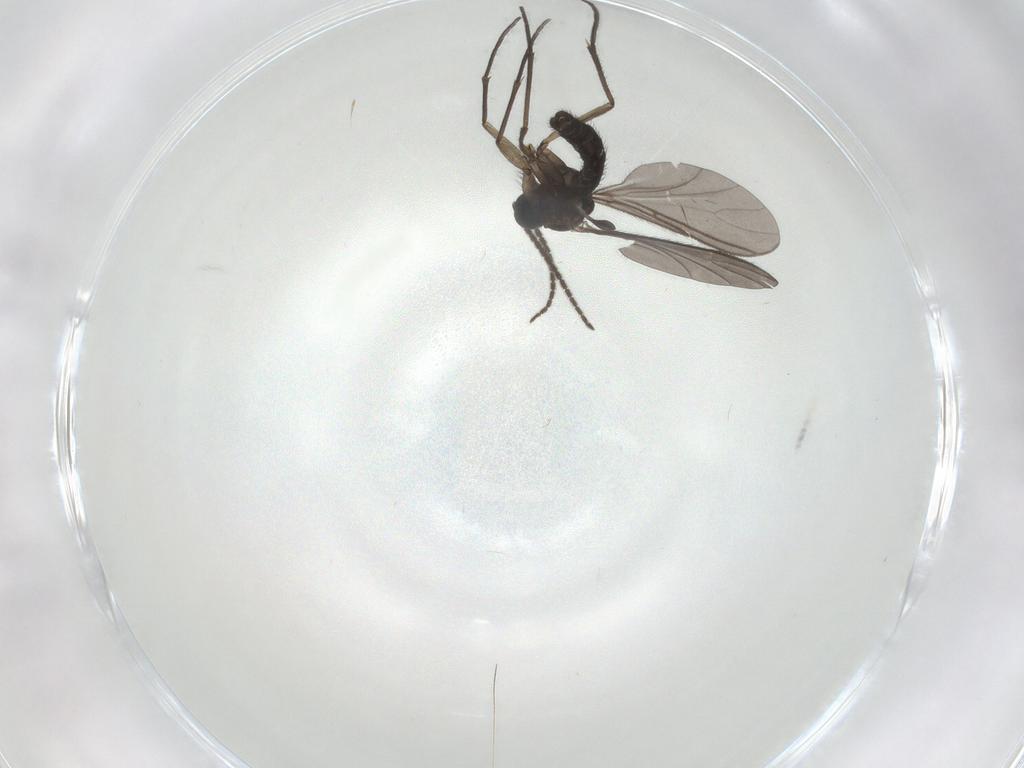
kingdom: Animalia
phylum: Arthropoda
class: Insecta
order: Diptera
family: Sciaridae
